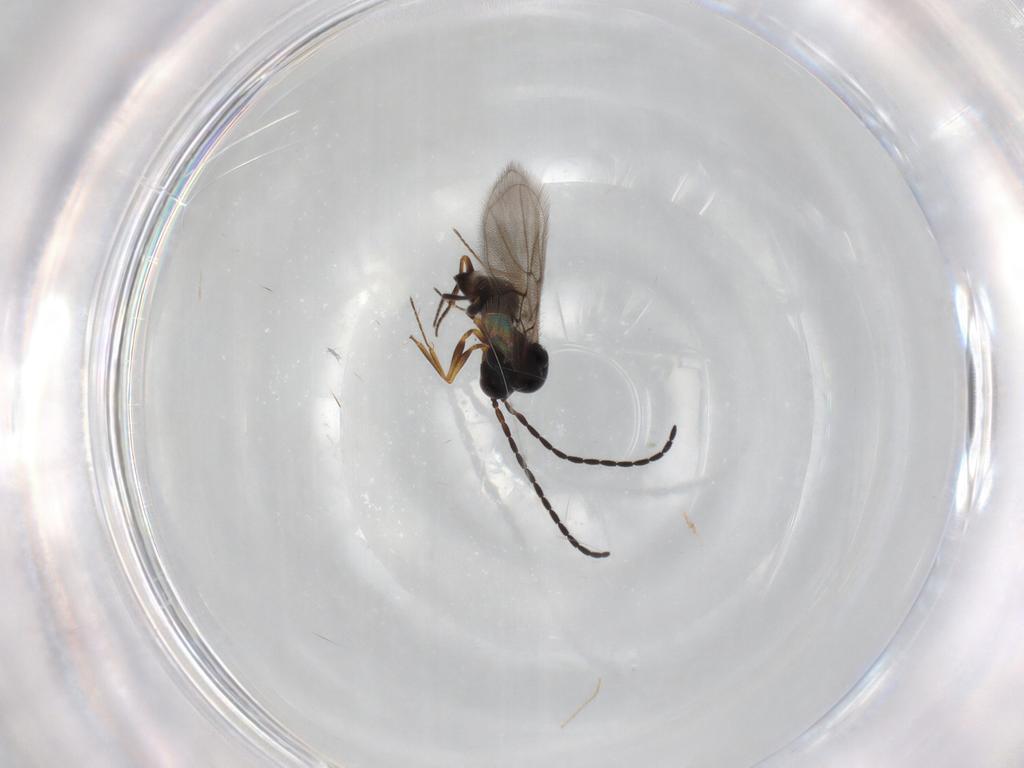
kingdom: Animalia
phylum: Arthropoda
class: Insecta
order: Hymenoptera
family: Figitidae
